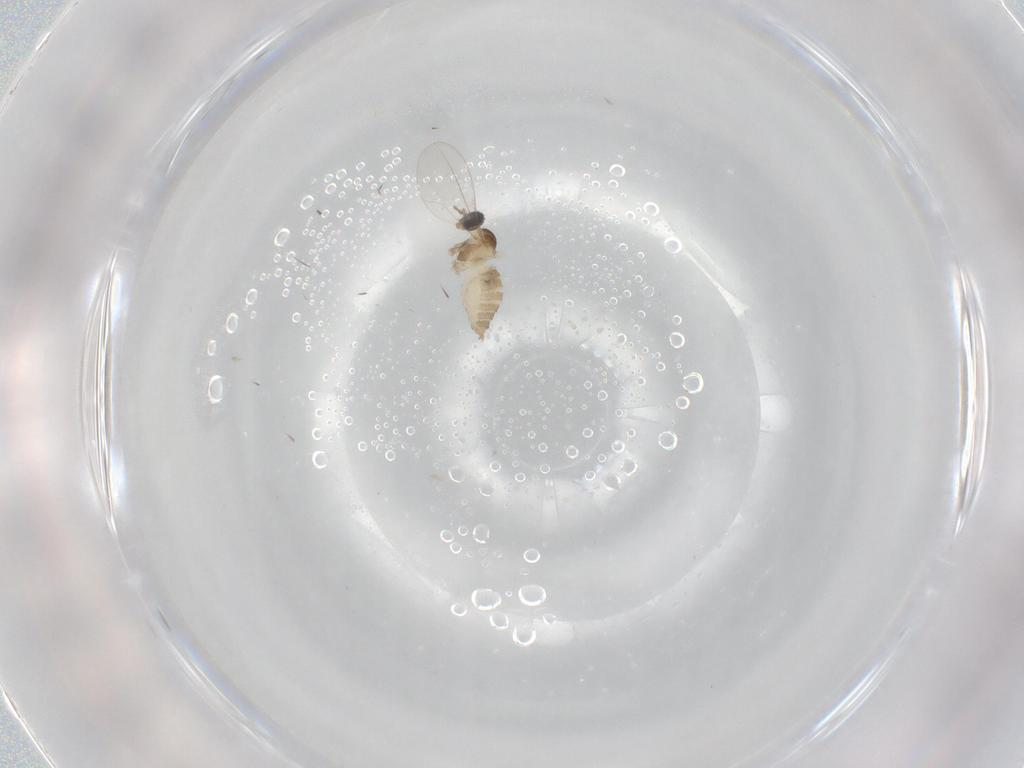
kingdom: Animalia
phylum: Arthropoda
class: Insecta
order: Diptera
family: Cecidomyiidae
